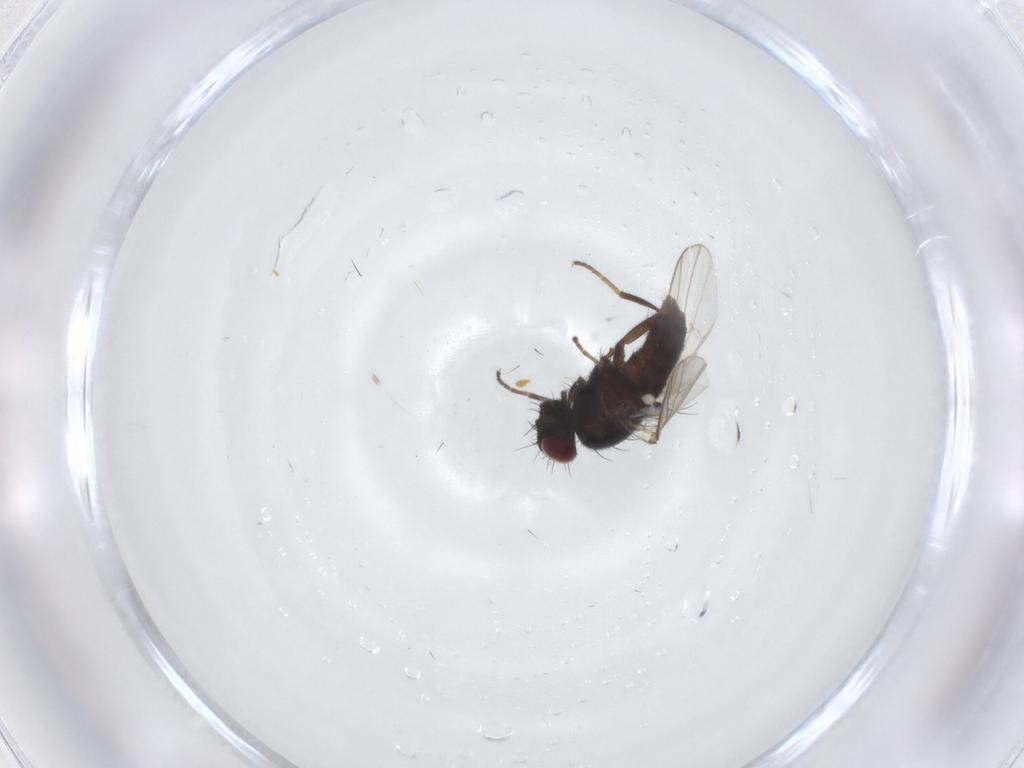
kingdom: Animalia
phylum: Arthropoda
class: Insecta
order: Diptera
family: Carnidae
